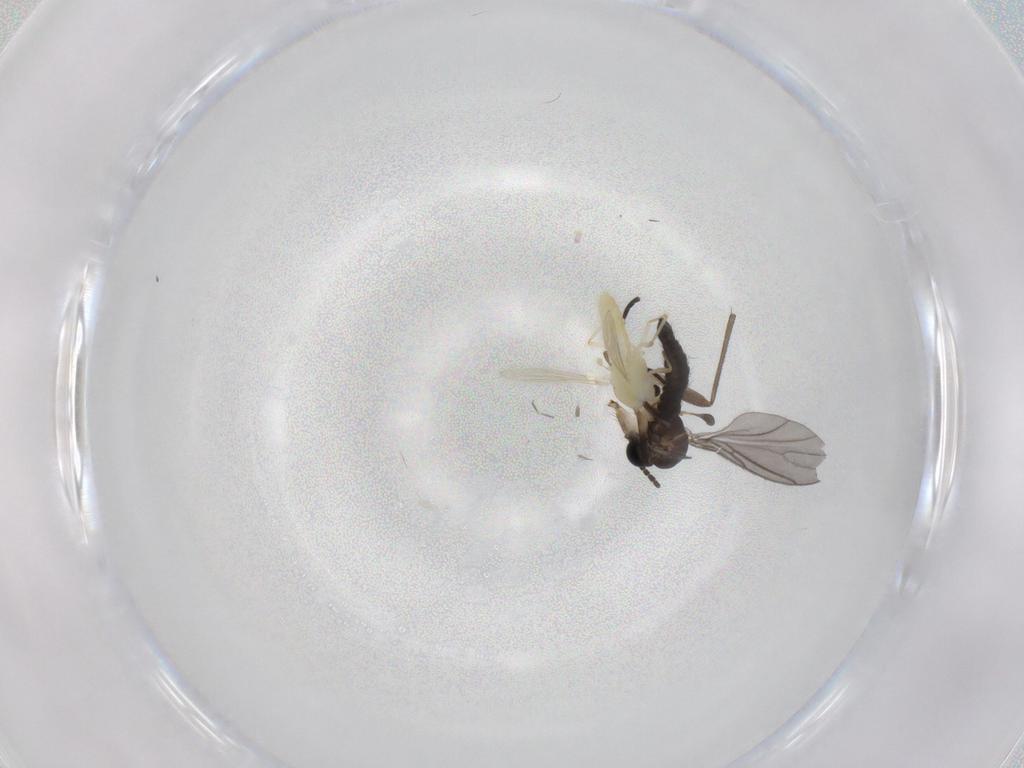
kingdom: Animalia
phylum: Arthropoda
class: Insecta
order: Diptera
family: Chironomidae
